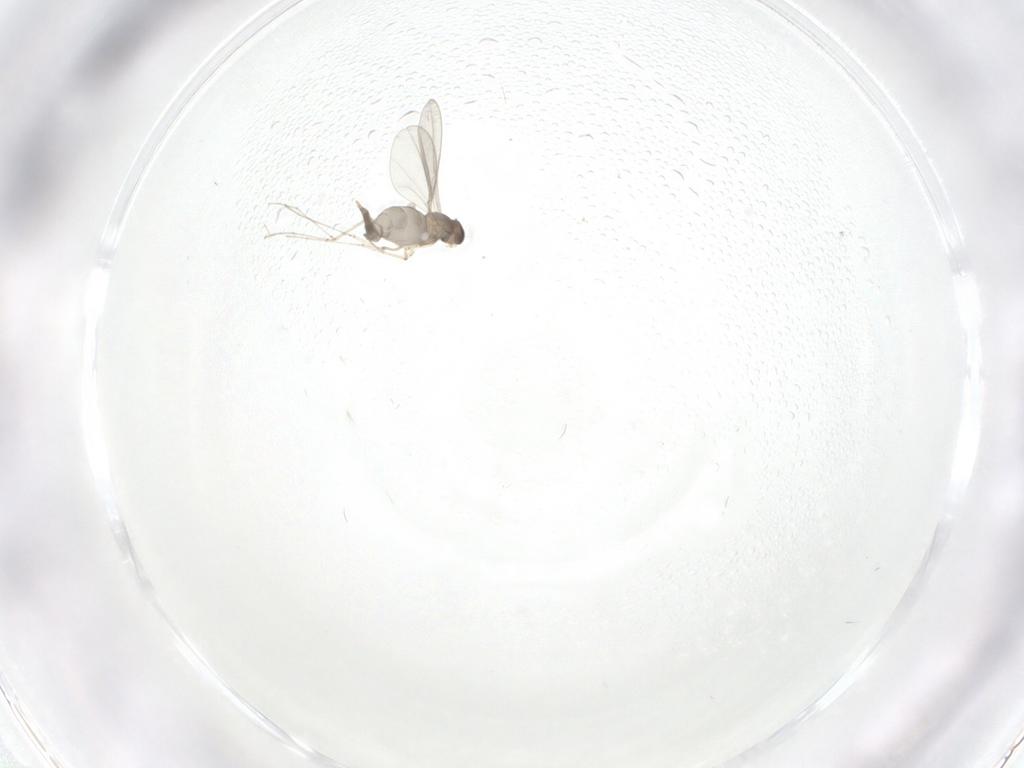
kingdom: Animalia
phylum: Arthropoda
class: Insecta
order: Diptera
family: Cecidomyiidae
